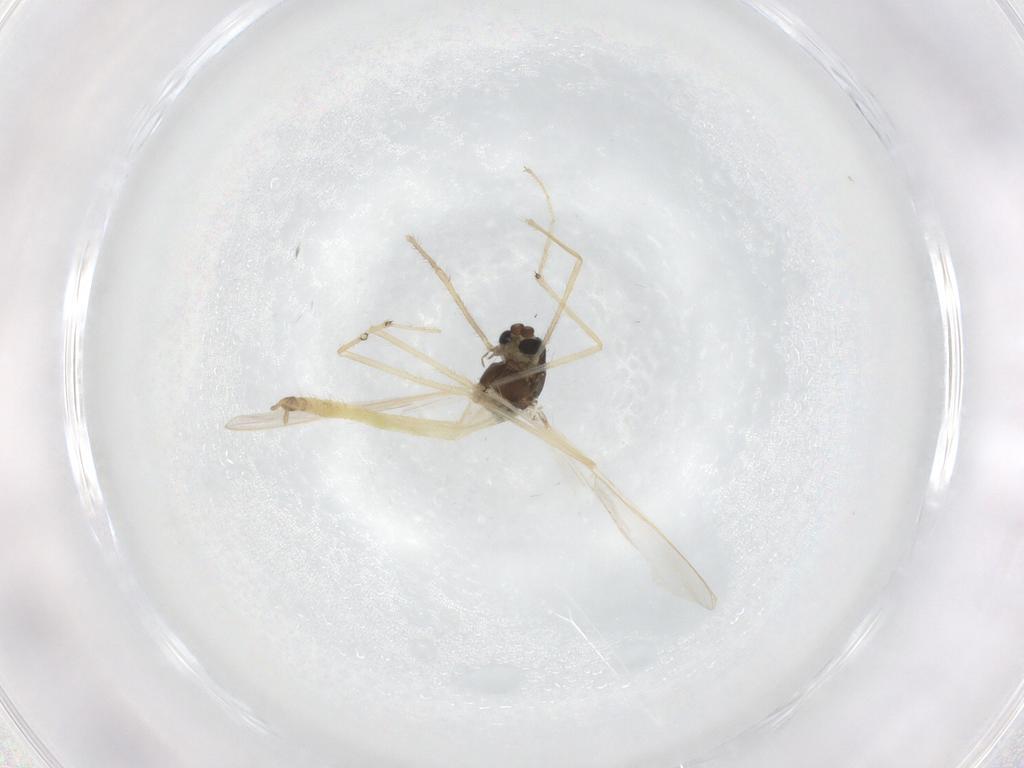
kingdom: Animalia
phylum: Arthropoda
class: Insecta
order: Diptera
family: Chironomidae
